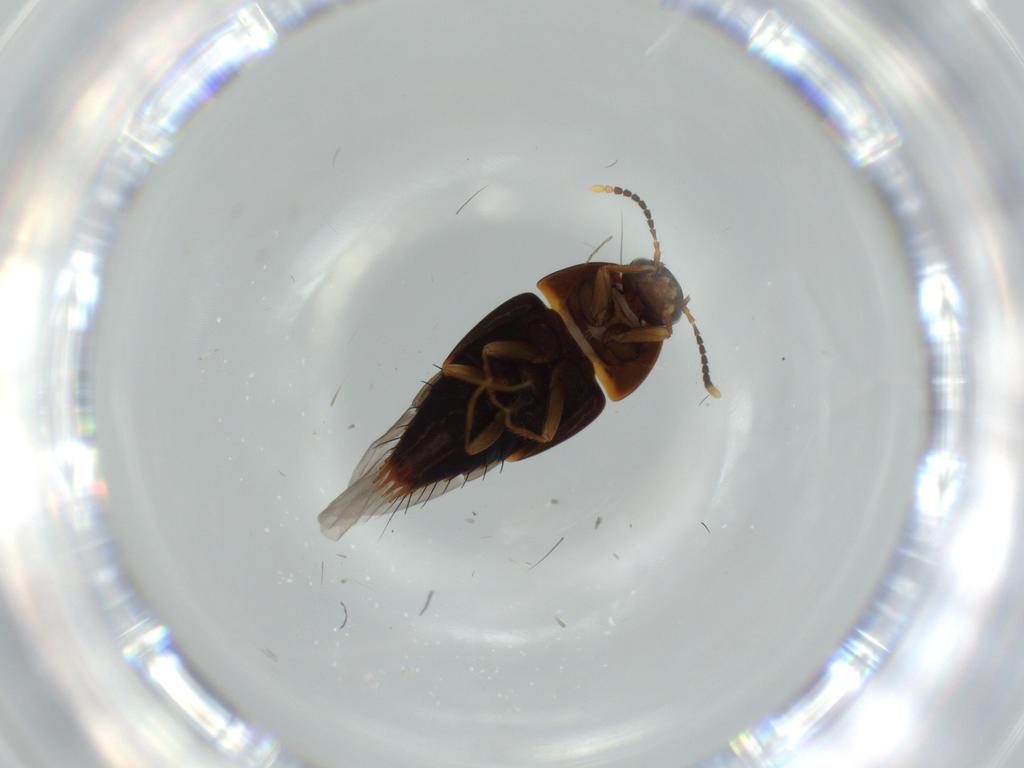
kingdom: Animalia
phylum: Arthropoda
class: Insecta
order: Coleoptera
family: Staphylinidae
